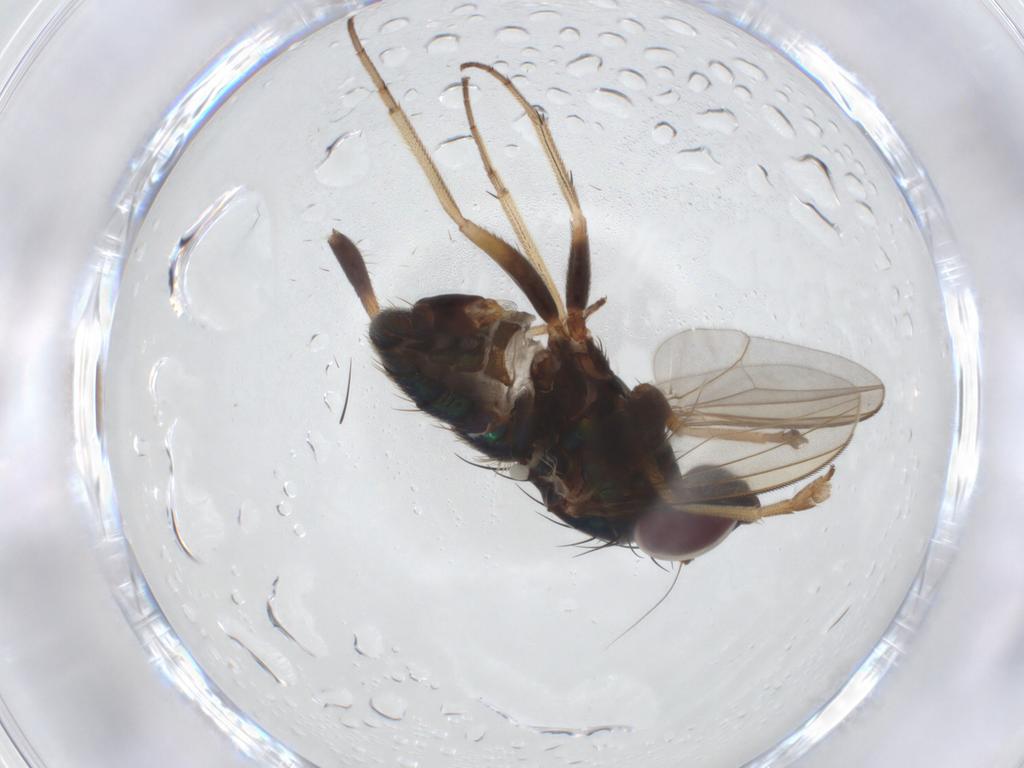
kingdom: Animalia
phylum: Arthropoda
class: Insecta
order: Diptera
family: Dolichopodidae
